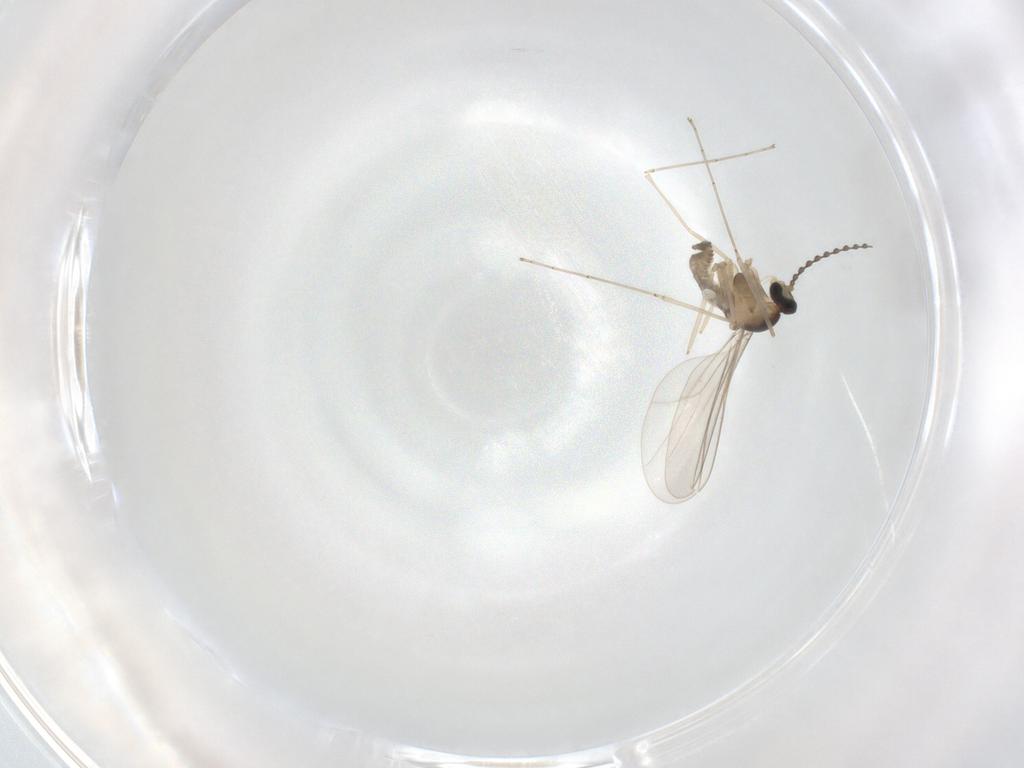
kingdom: Animalia
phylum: Arthropoda
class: Insecta
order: Diptera
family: Cecidomyiidae
